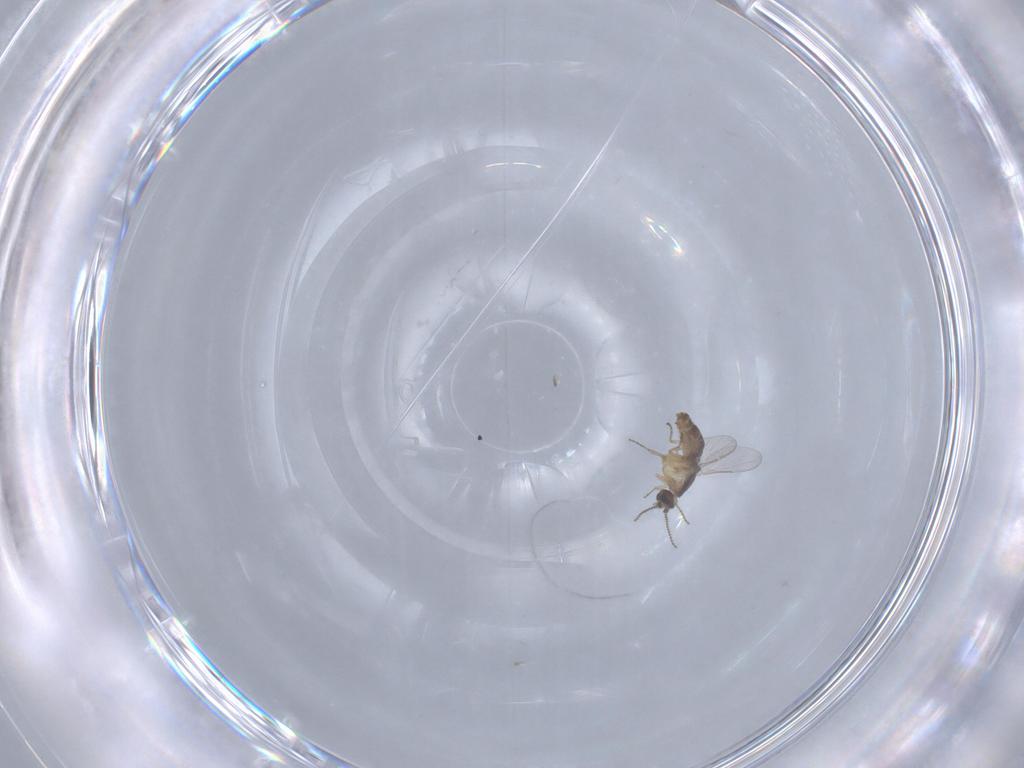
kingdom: Animalia
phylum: Arthropoda
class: Insecta
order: Diptera
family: Ceratopogonidae
